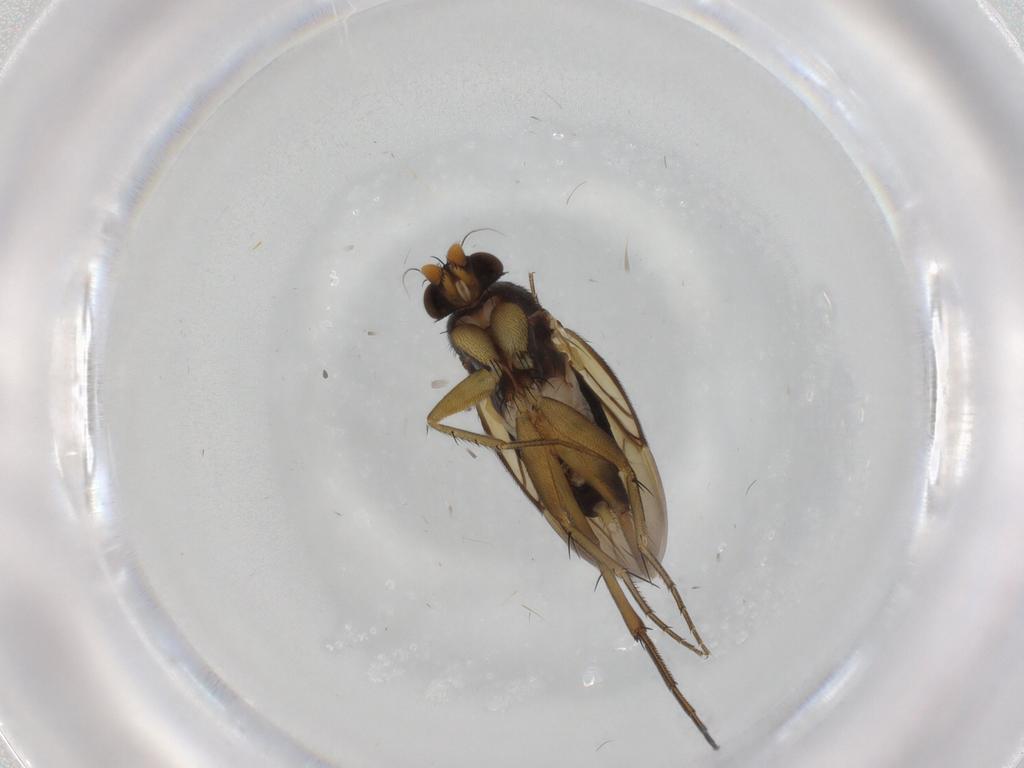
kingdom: Animalia
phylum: Arthropoda
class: Insecta
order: Diptera
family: Phoridae
